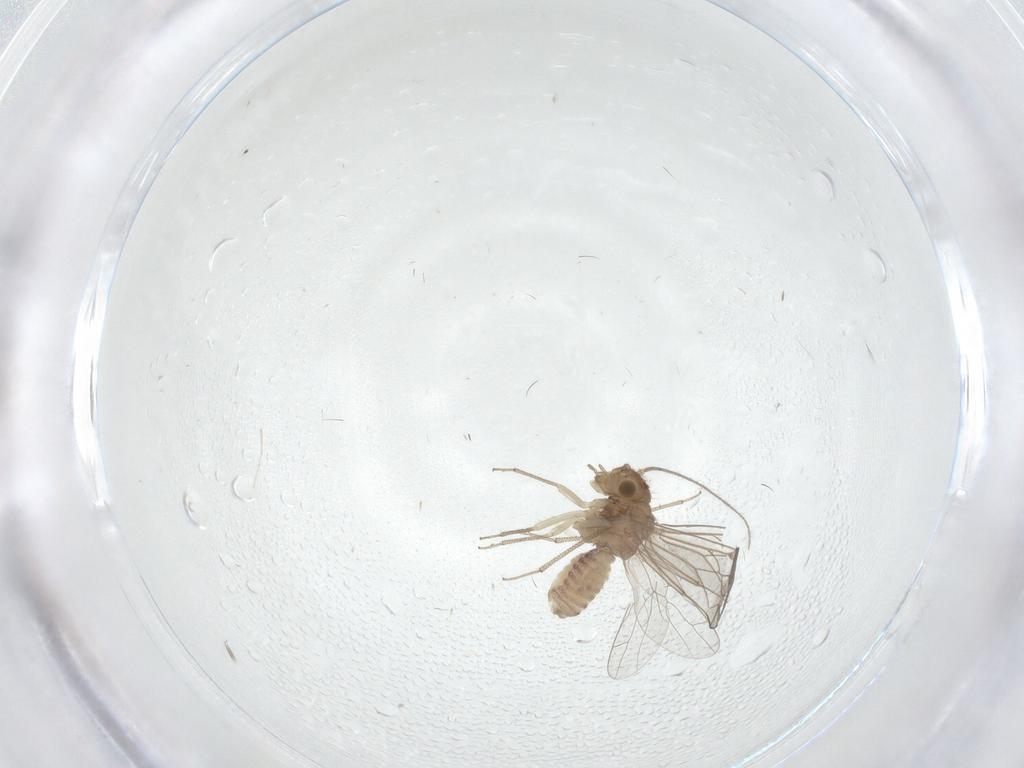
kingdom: Animalia
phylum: Arthropoda
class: Insecta
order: Psocodea
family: Lachesillidae
